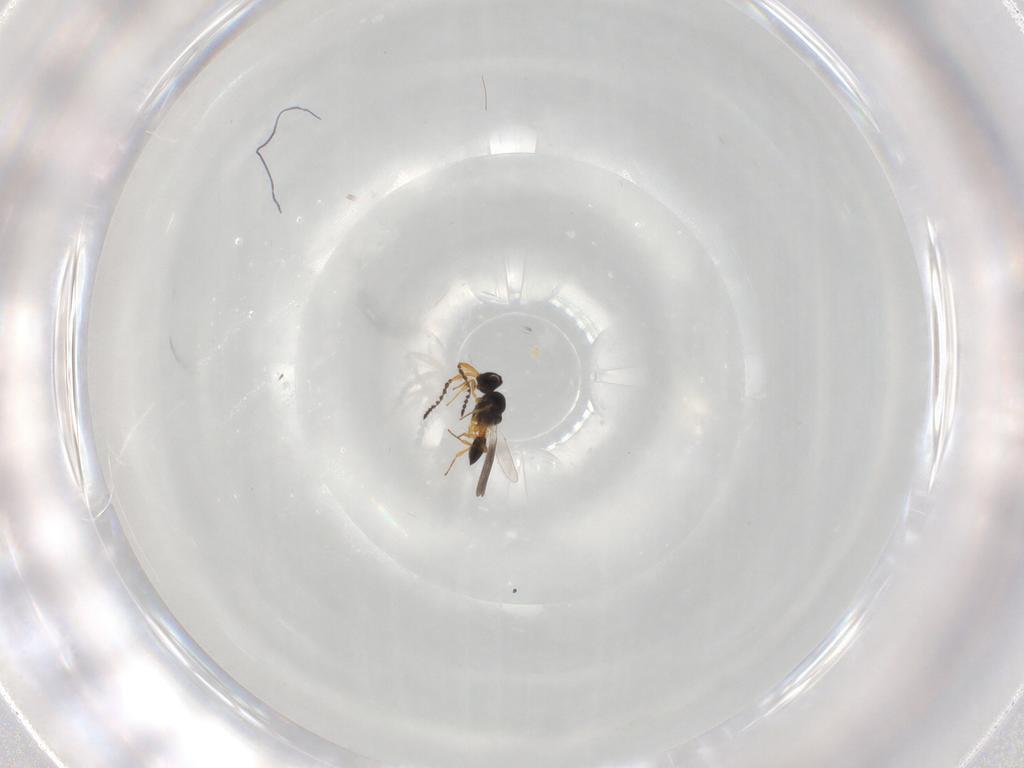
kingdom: Animalia
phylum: Arthropoda
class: Insecta
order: Hymenoptera
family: Platygastridae
